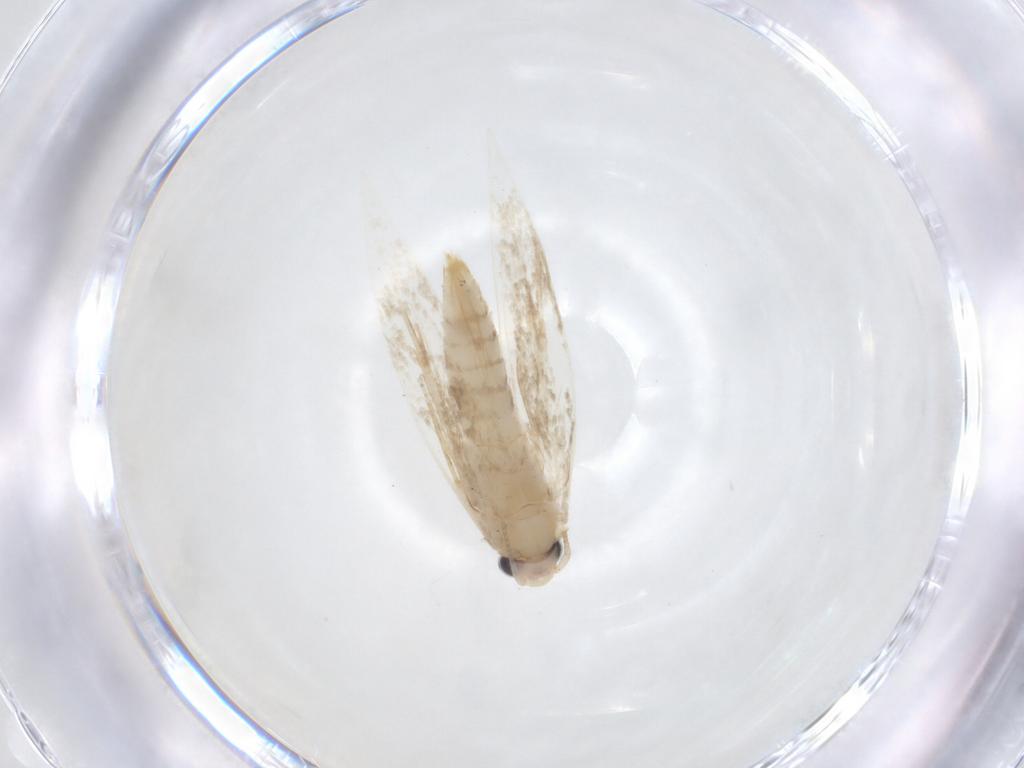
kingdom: Animalia
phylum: Arthropoda
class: Insecta
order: Lepidoptera
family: Tineidae
